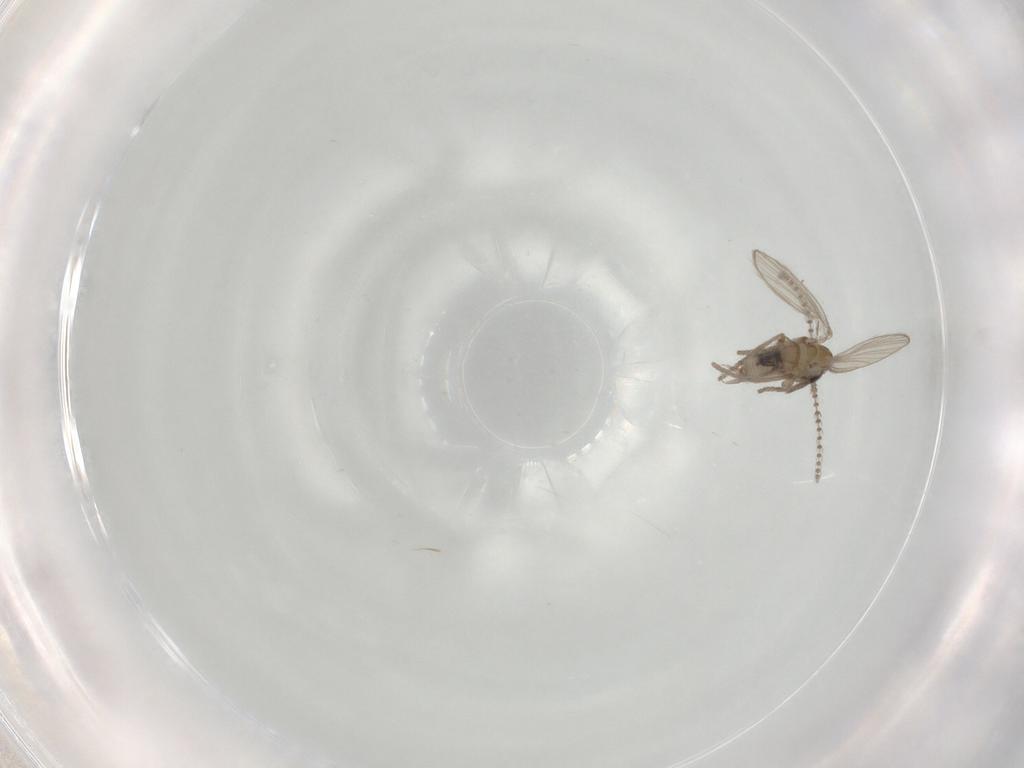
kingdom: Animalia
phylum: Arthropoda
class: Insecta
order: Diptera
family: Psychodidae
